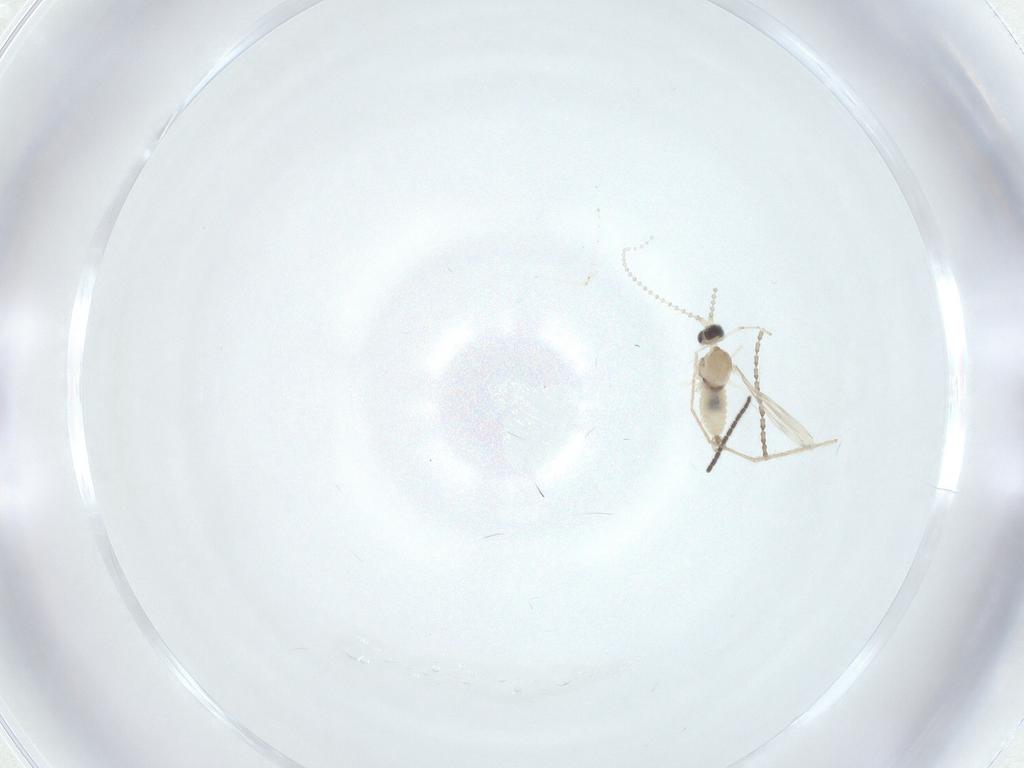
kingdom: Animalia
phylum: Arthropoda
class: Insecta
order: Diptera
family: Cecidomyiidae
